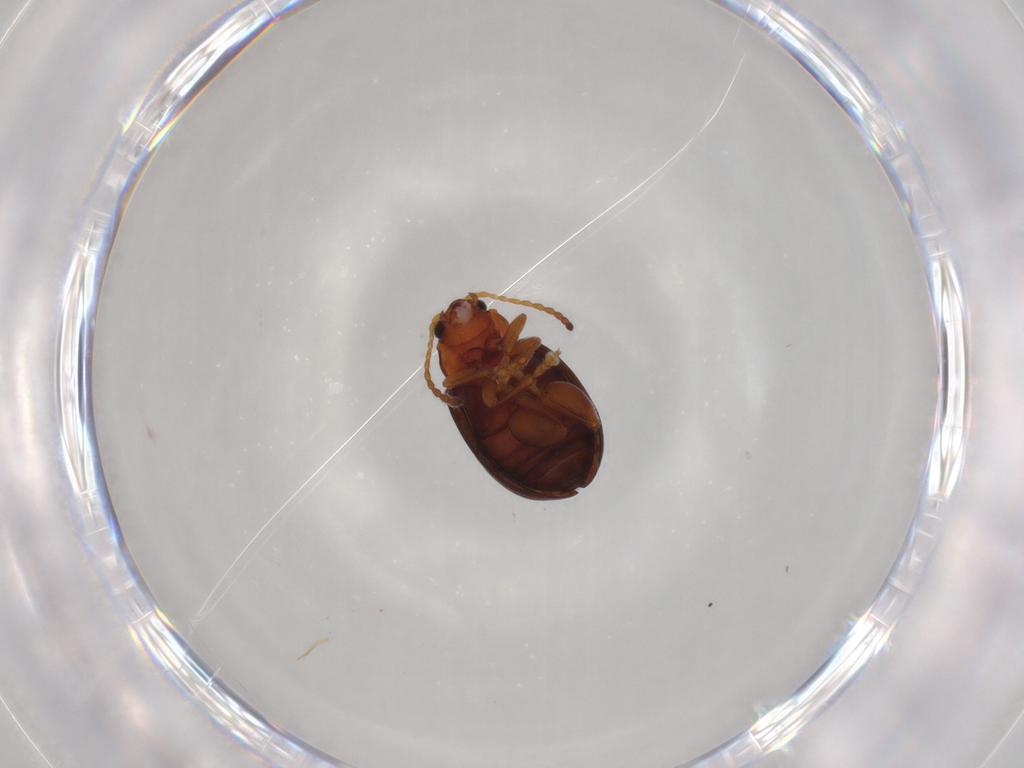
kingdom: Animalia
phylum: Arthropoda
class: Insecta
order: Coleoptera
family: Chrysomelidae
